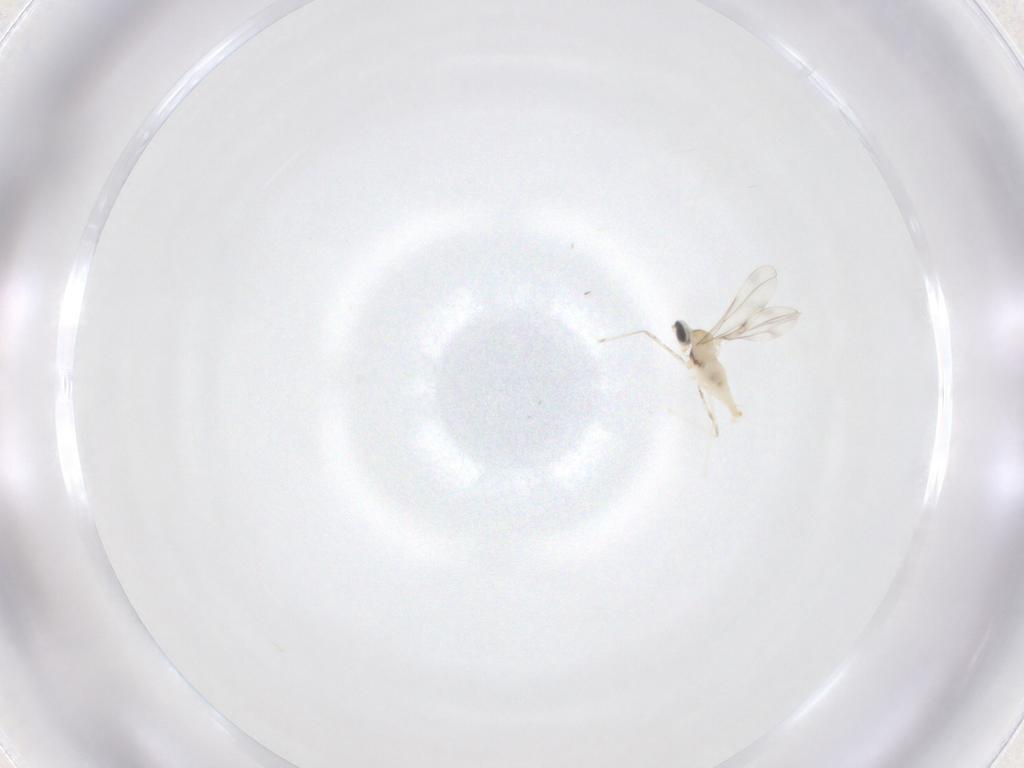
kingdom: Animalia
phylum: Arthropoda
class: Insecta
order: Diptera
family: Cecidomyiidae
